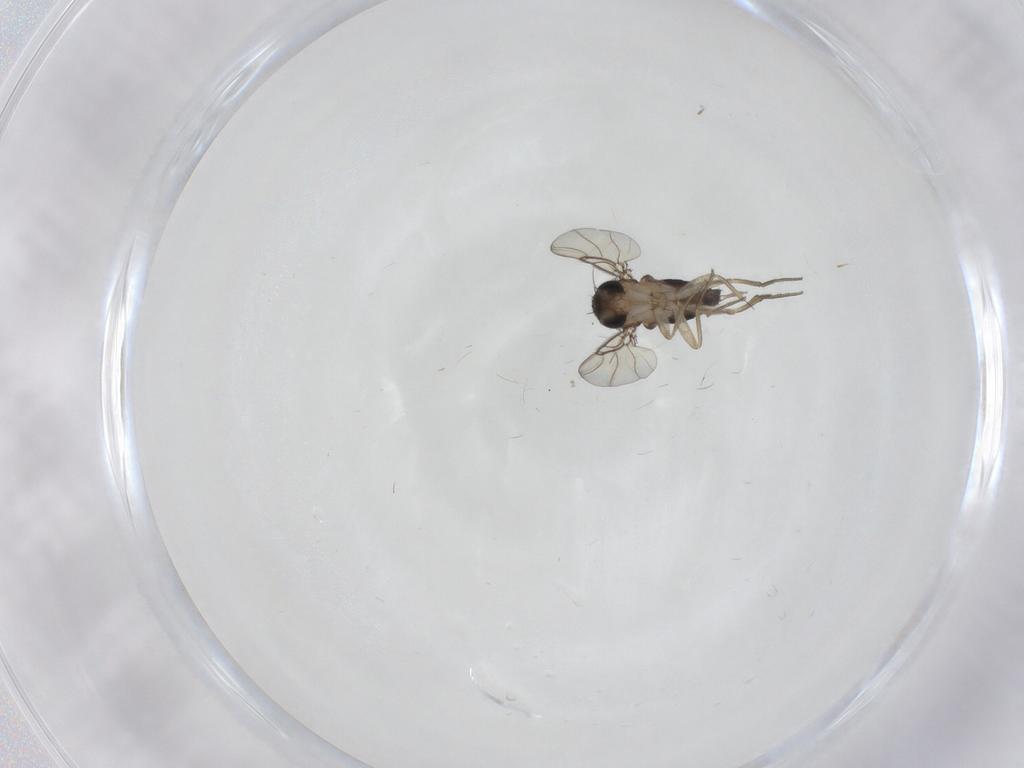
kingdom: Animalia
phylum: Arthropoda
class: Insecta
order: Diptera
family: Phoridae
